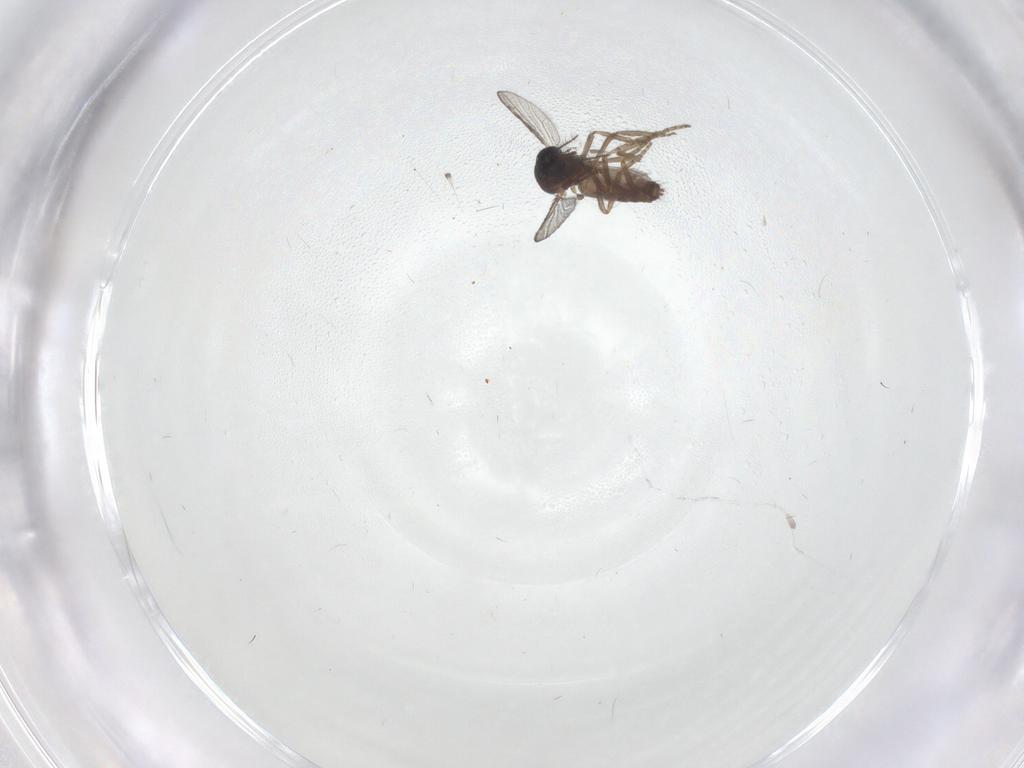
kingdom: Animalia
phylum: Arthropoda
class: Insecta
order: Diptera
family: Chironomidae
